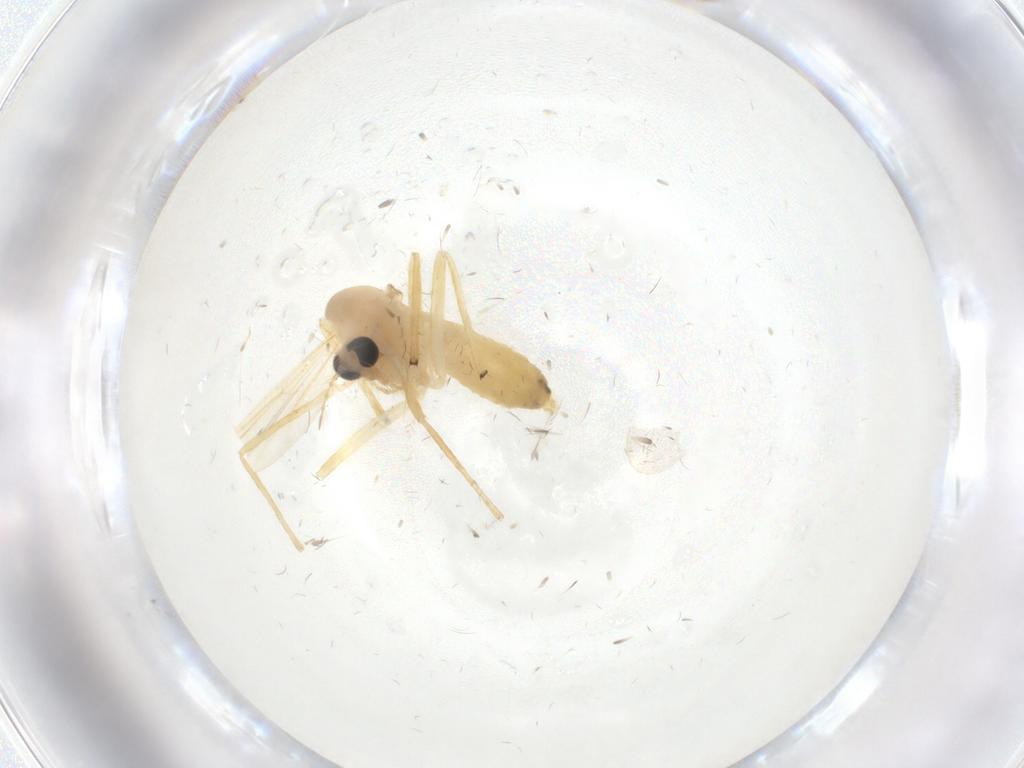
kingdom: Animalia
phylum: Arthropoda
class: Insecta
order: Diptera
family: Chironomidae
